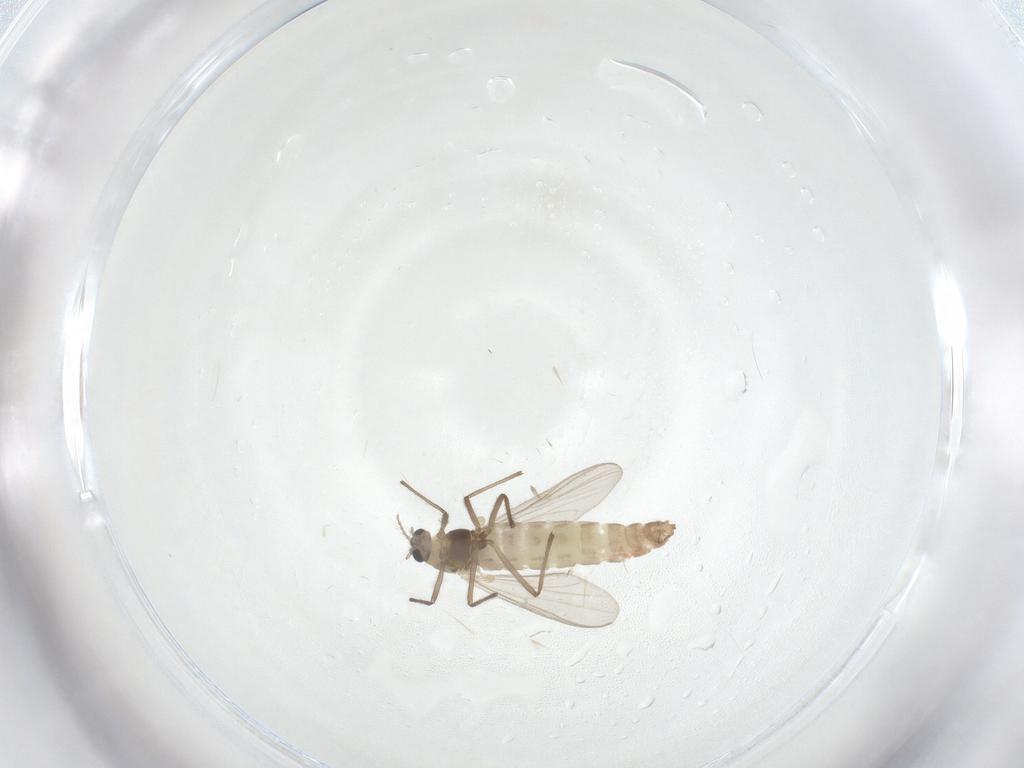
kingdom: Animalia
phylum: Arthropoda
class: Insecta
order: Diptera
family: Chironomidae
